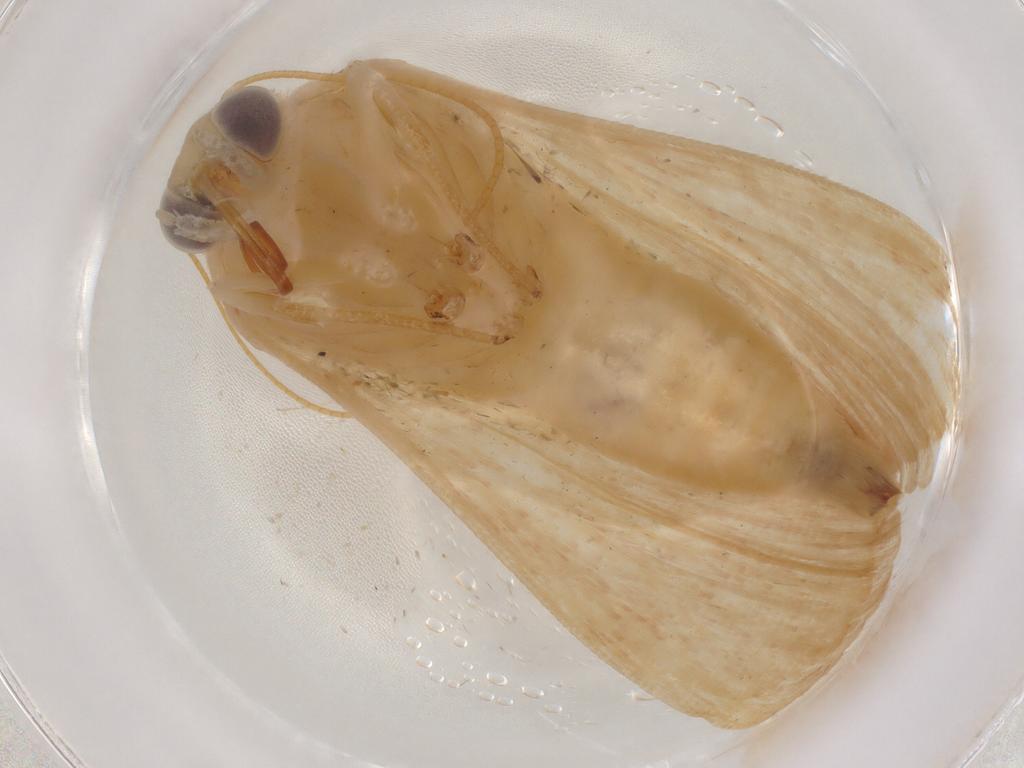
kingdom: Animalia
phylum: Arthropoda
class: Insecta
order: Lepidoptera
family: Noctuidae
